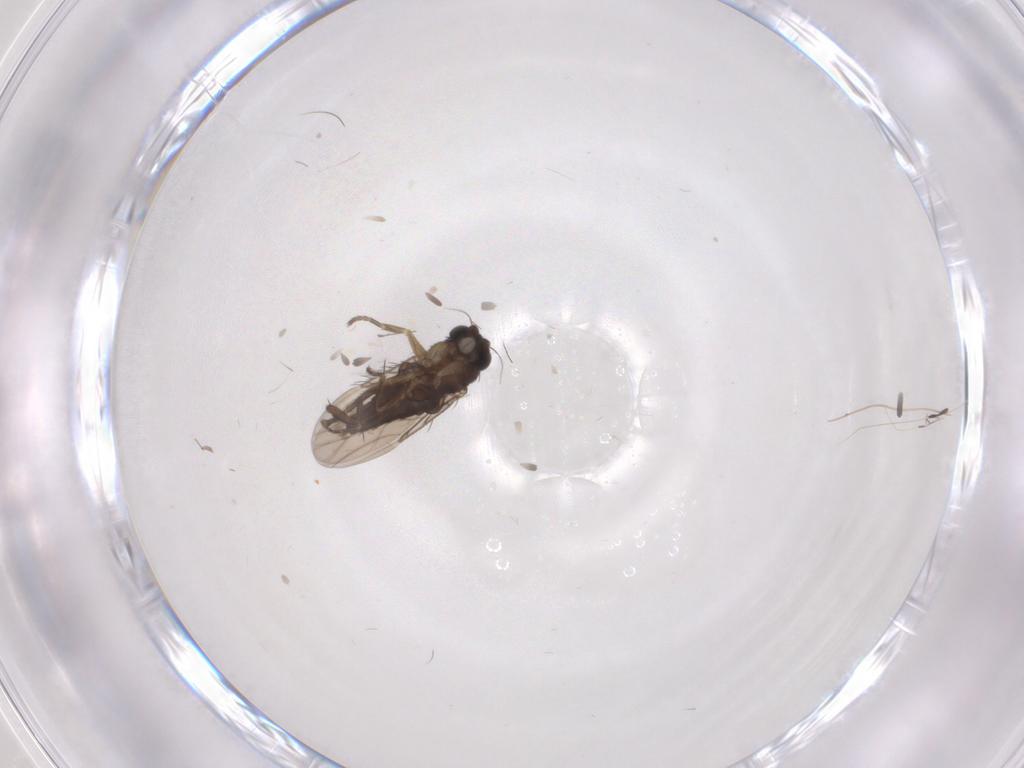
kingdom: Animalia
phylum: Arthropoda
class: Insecta
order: Diptera
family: Phoridae
